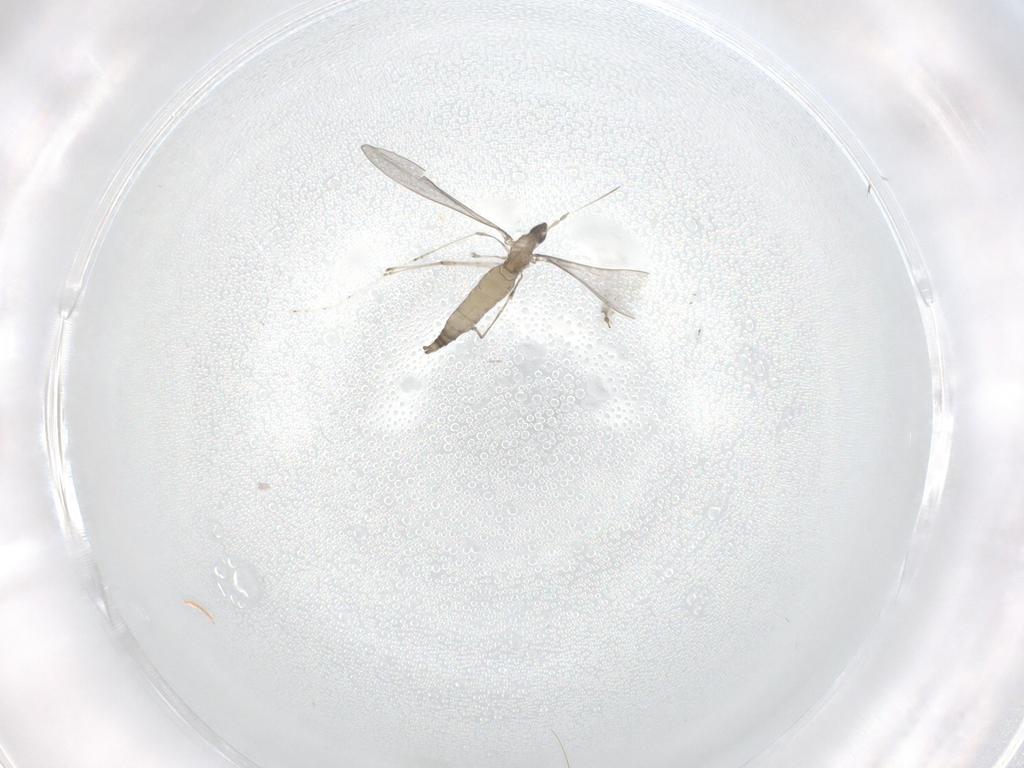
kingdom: Animalia
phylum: Arthropoda
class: Insecta
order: Diptera
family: Cecidomyiidae
